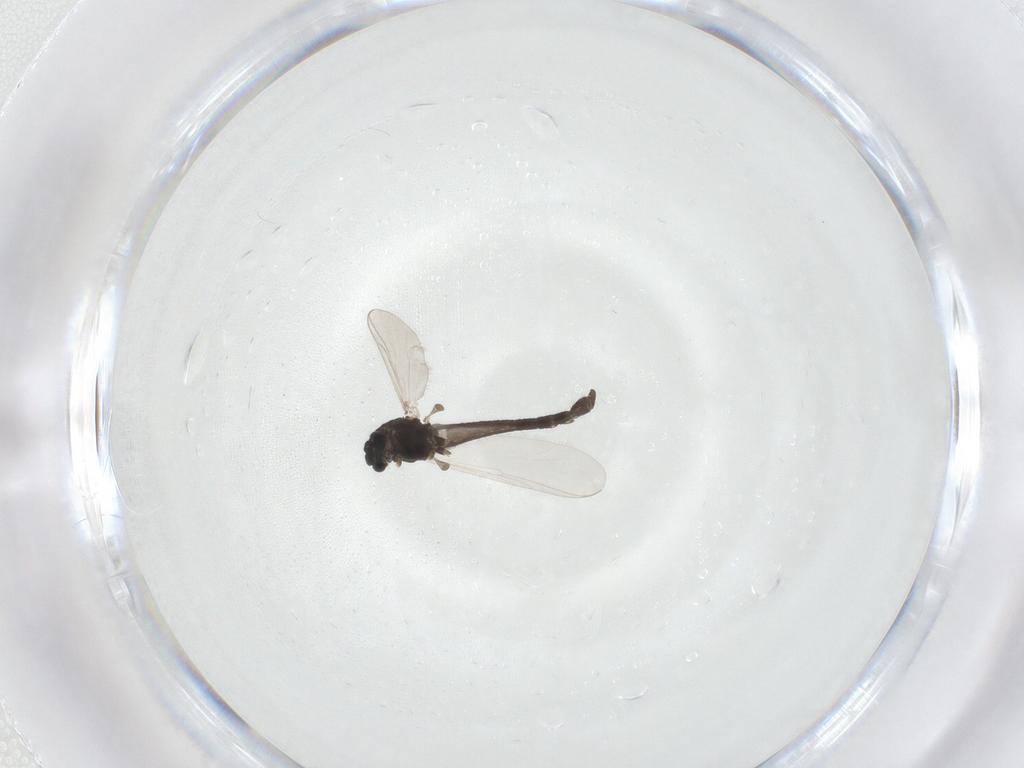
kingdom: Animalia
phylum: Arthropoda
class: Insecta
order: Diptera
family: Chironomidae
